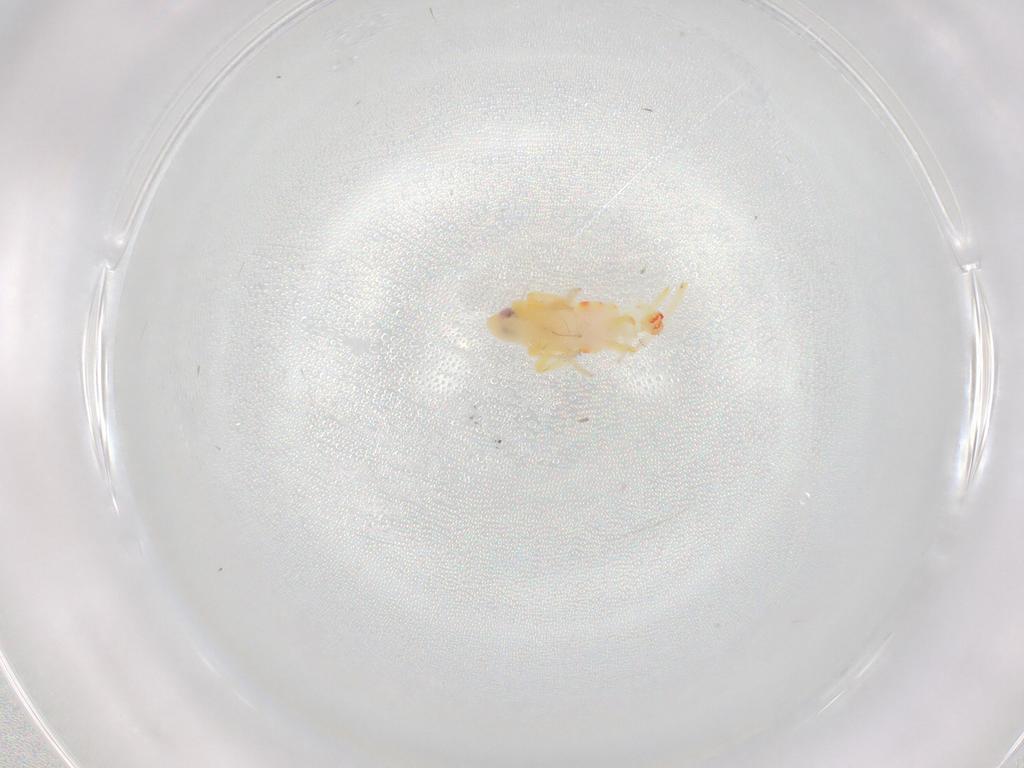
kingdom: Animalia
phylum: Arthropoda
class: Insecta
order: Hemiptera
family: Tropiduchidae
